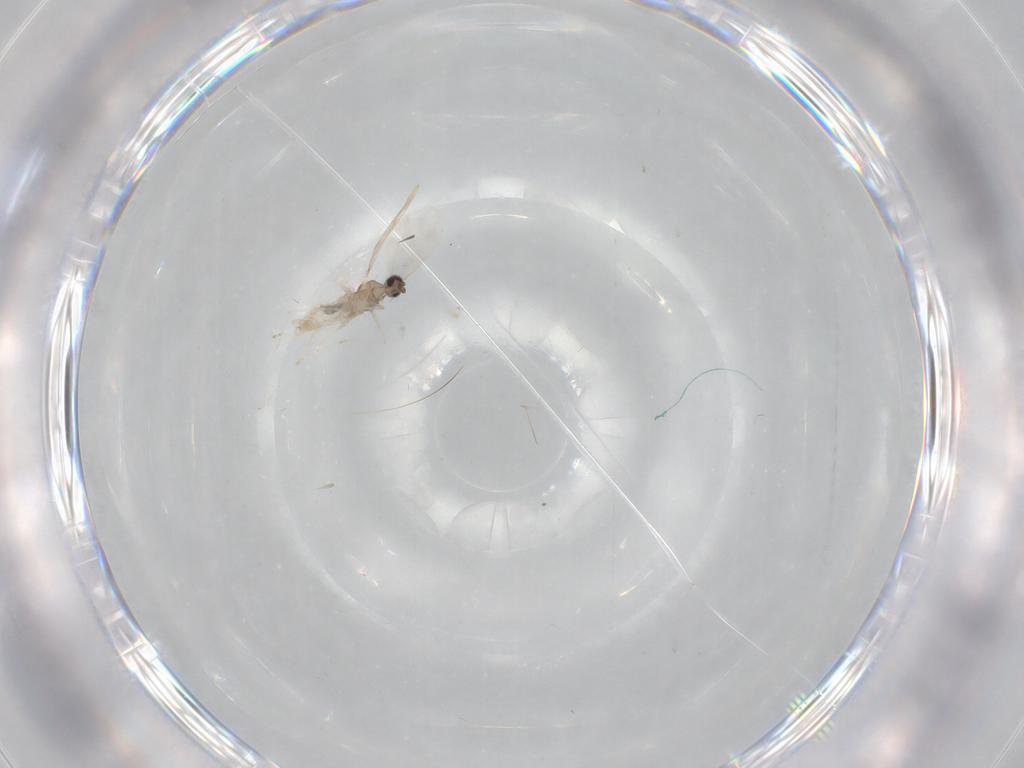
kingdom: Animalia
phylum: Arthropoda
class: Insecta
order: Diptera
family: Cecidomyiidae
